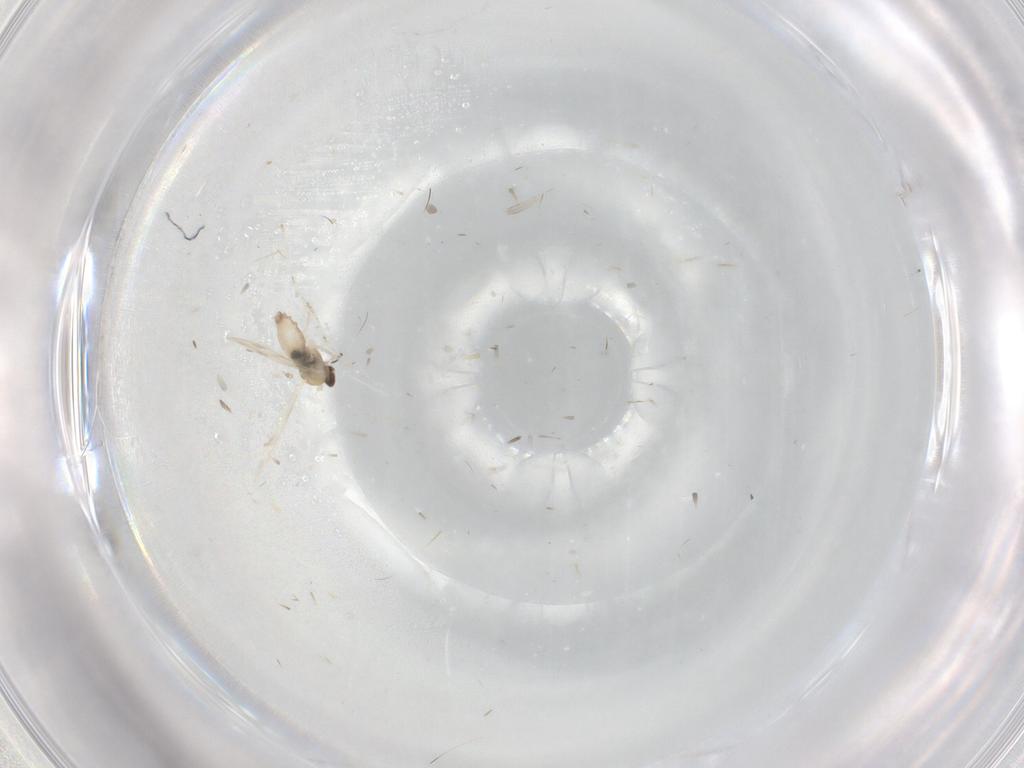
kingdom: Animalia
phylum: Arthropoda
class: Insecta
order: Diptera
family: Cecidomyiidae
